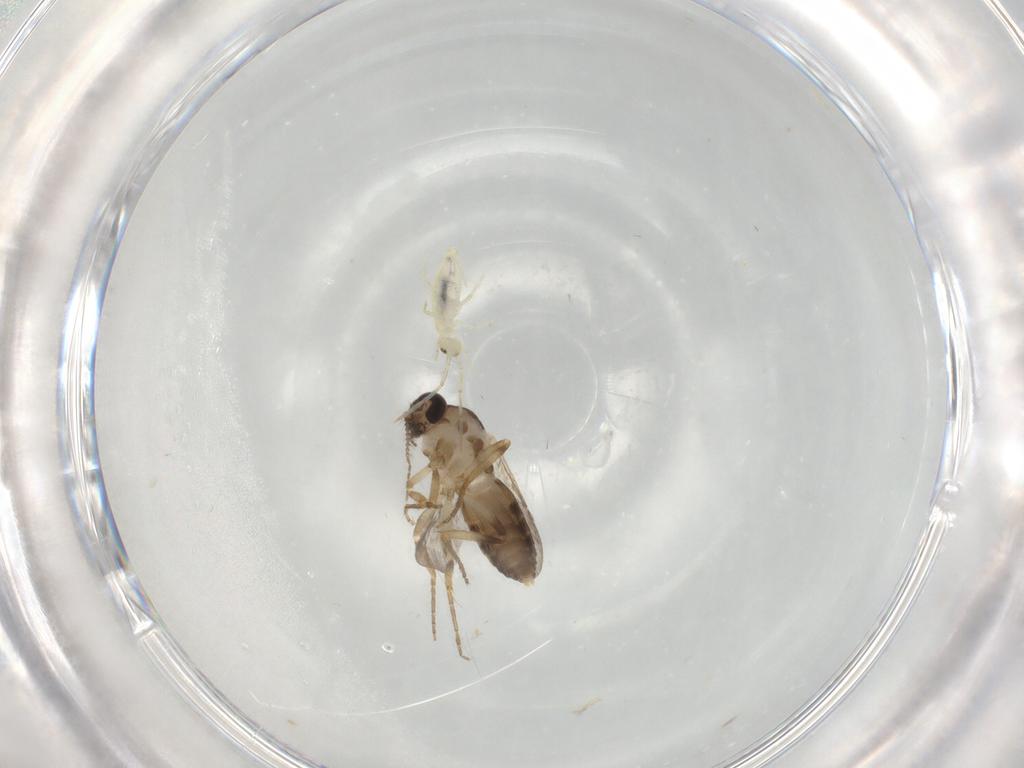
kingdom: Animalia
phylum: Arthropoda
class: Insecta
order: Diptera
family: Ceratopogonidae
